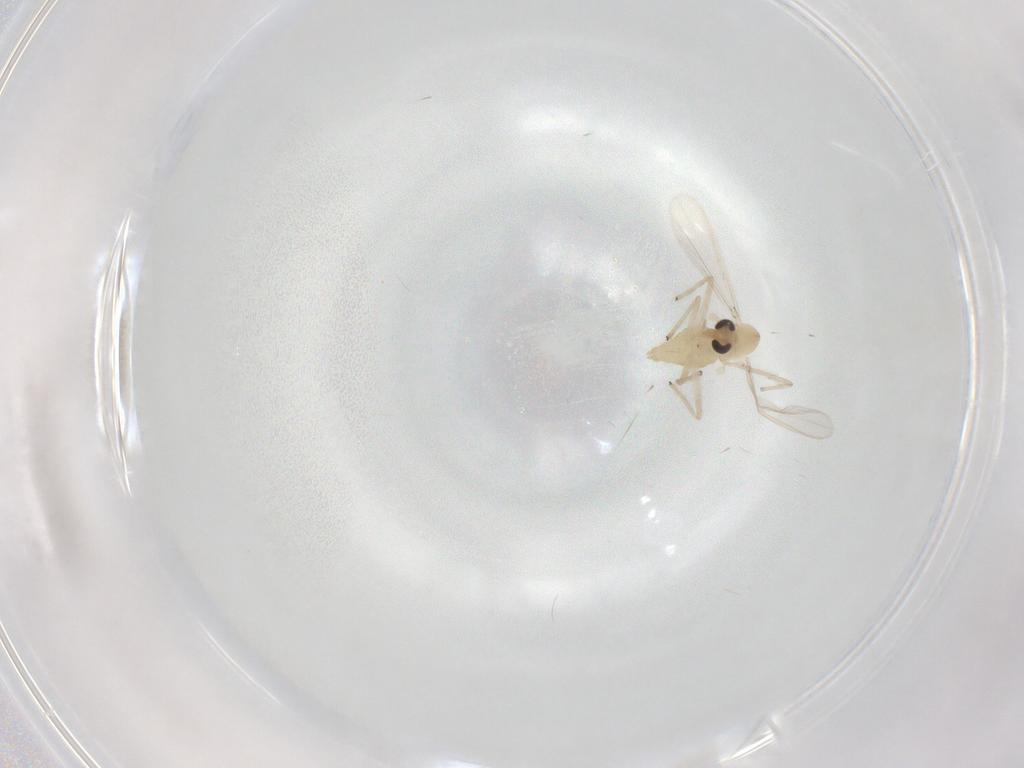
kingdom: Animalia
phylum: Arthropoda
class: Insecta
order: Diptera
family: Chironomidae
